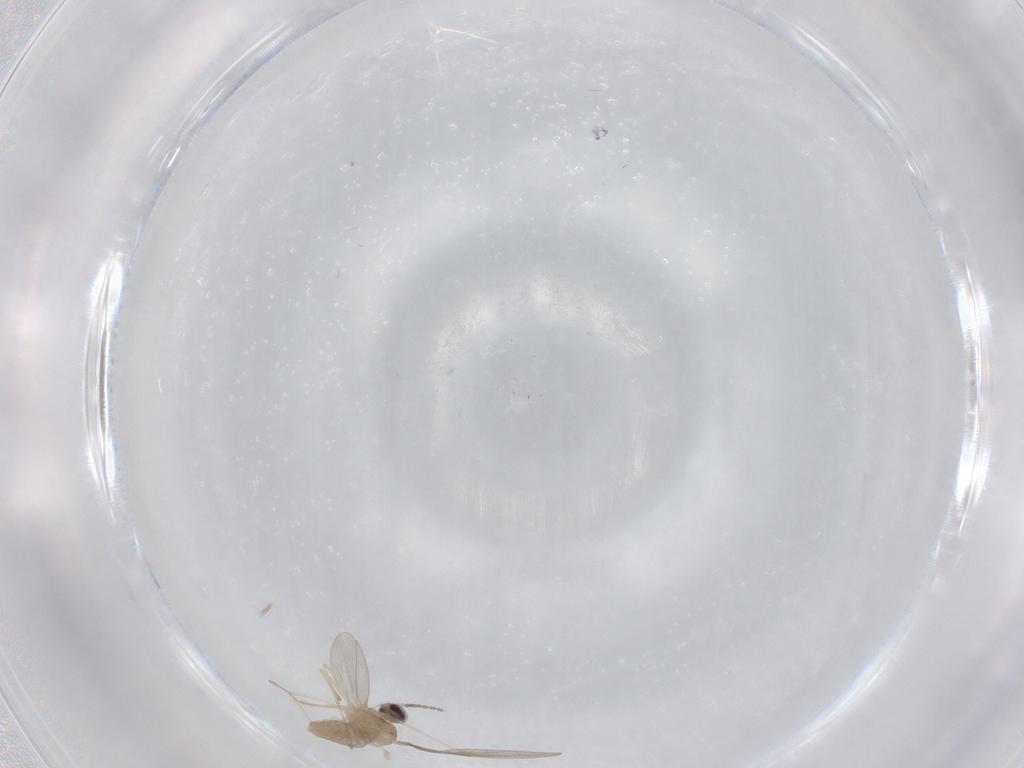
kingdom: Animalia
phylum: Arthropoda
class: Insecta
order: Diptera
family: Cecidomyiidae
